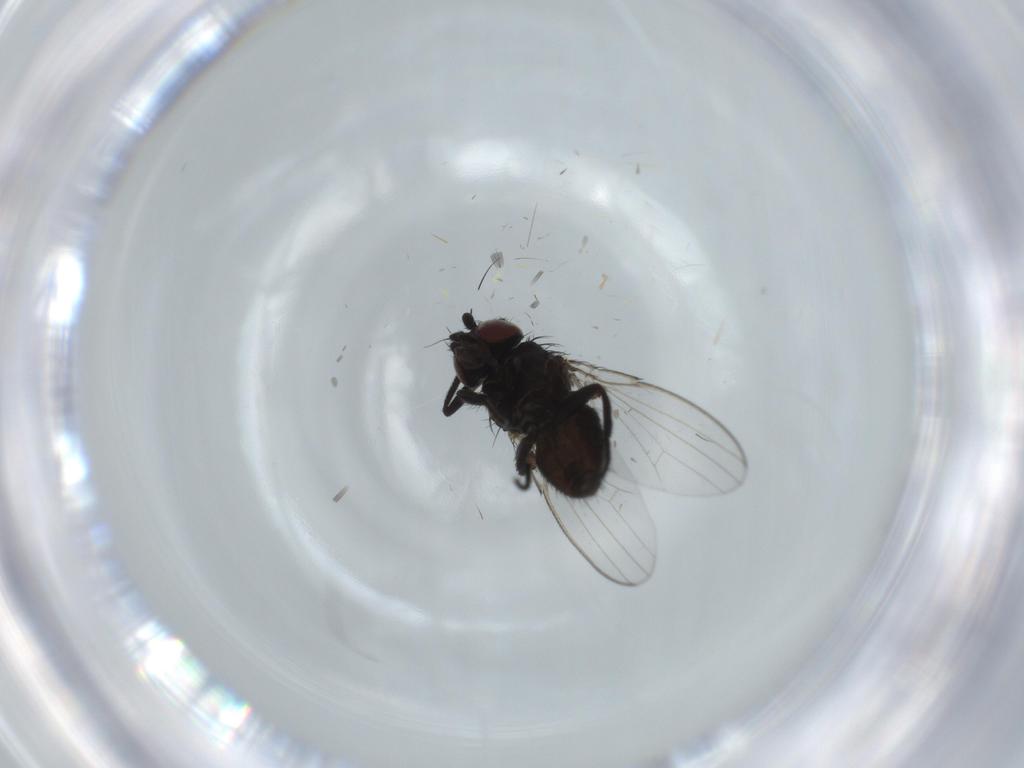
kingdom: Animalia
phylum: Arthropoda
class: Insecta
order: Diptera
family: Milichiidae
